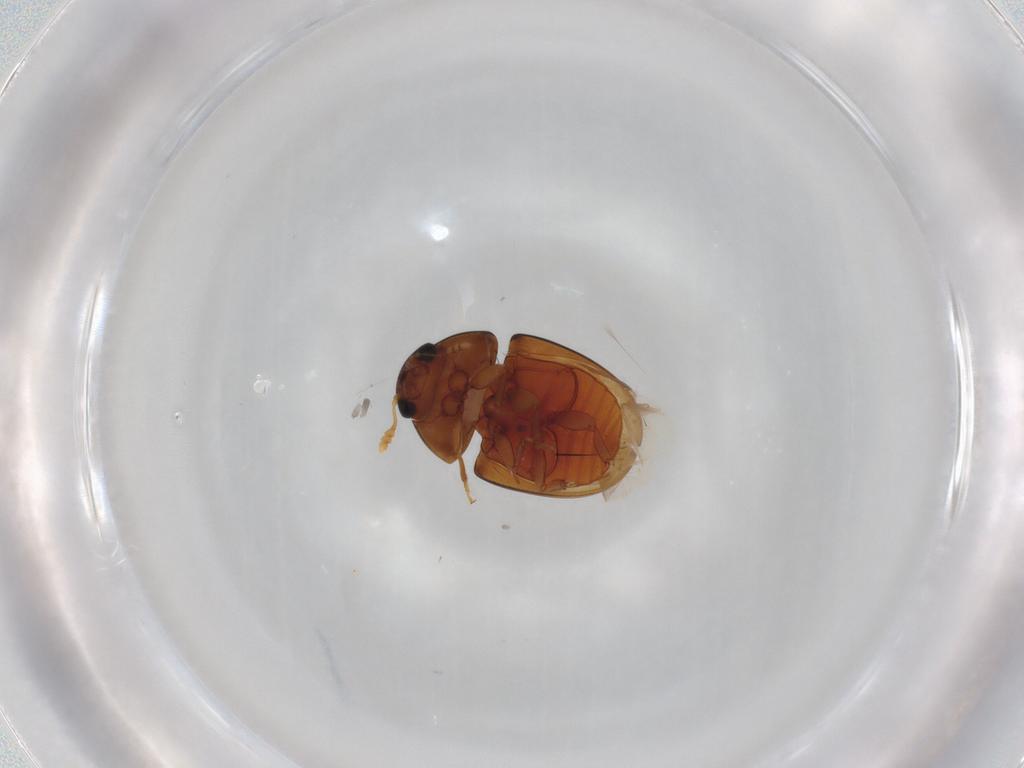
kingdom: Animalia
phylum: Arthropoda
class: Insecta
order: Coleoptera
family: Phalacridae
